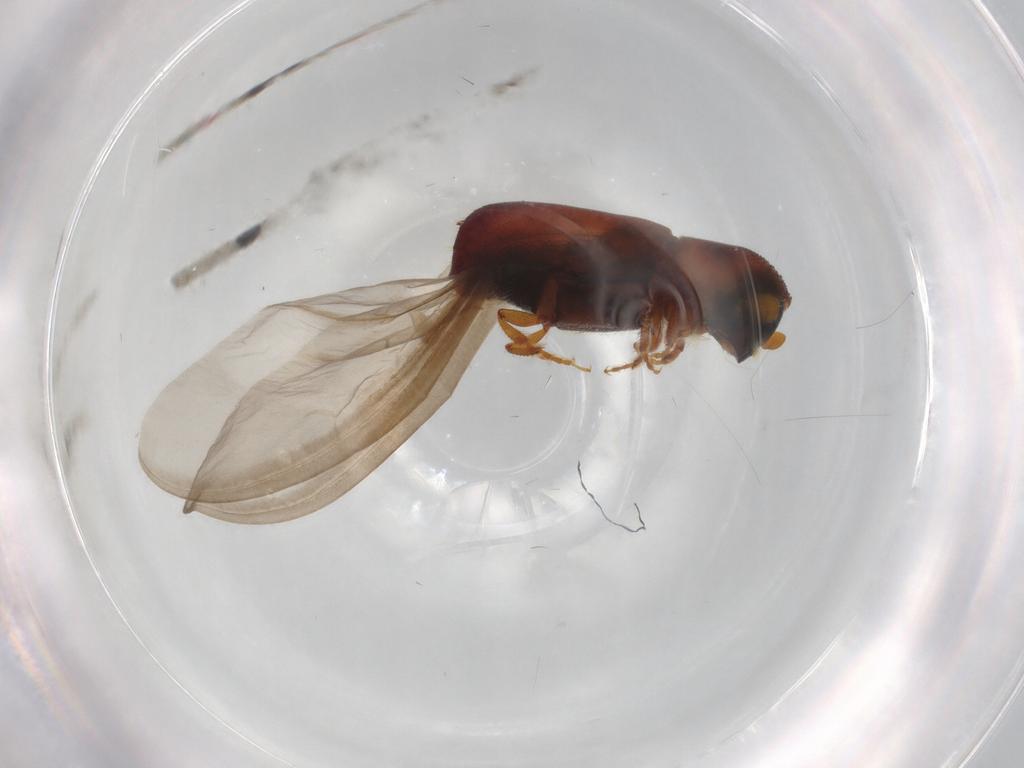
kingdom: Animalia
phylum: Arthropoda
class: Insecta
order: Coleoptera
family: Curculionidae
